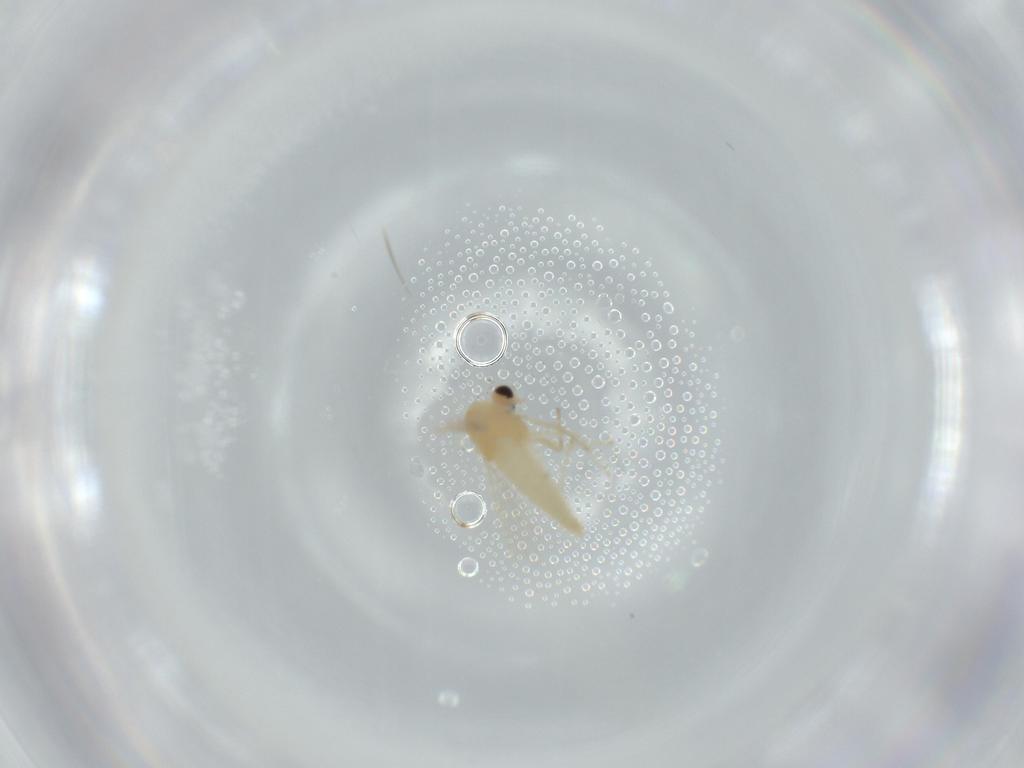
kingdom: Animalia
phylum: Arthropoda
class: Insecta
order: Diptera
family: Chironomidae
